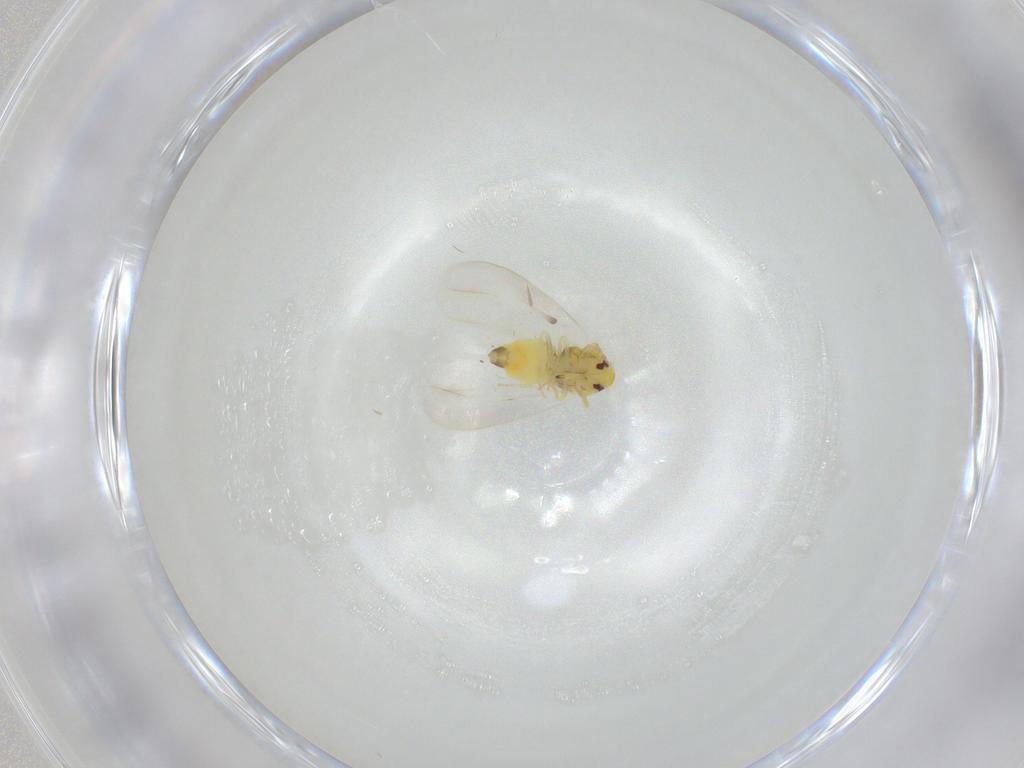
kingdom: Animalia
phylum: Arthropoda
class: Insecta
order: Hemiptera
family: Aleyrodidae
